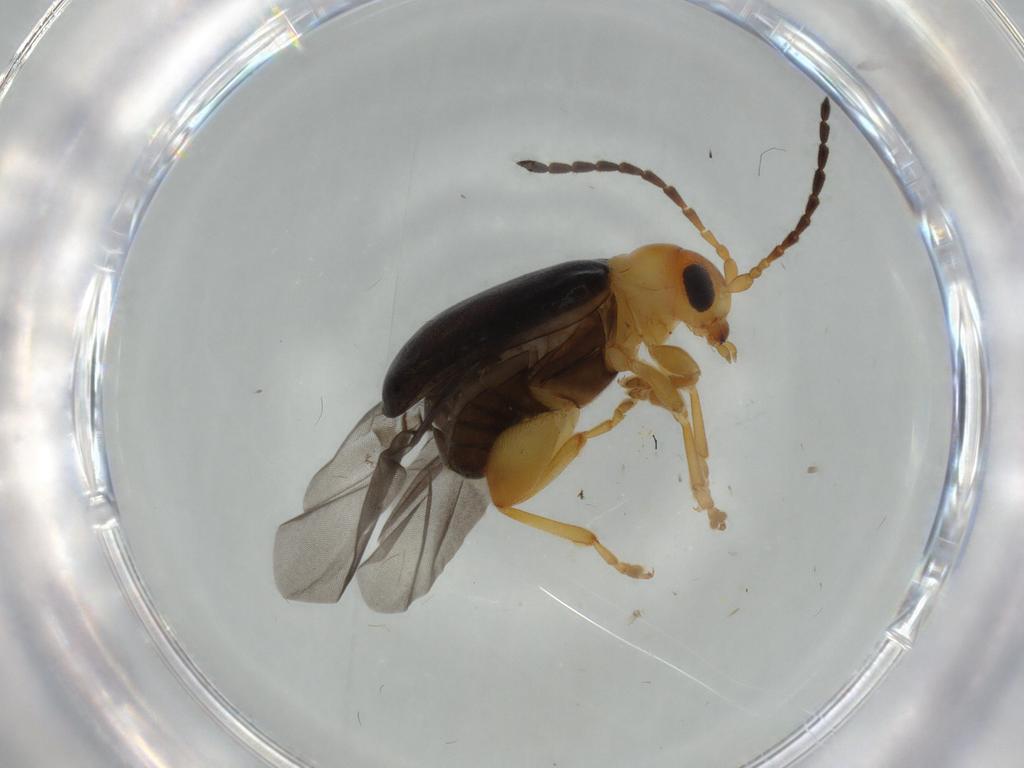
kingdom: Animalia
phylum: Arthropoda
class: Insecta
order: Coleoptera
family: Chrysomelidae
